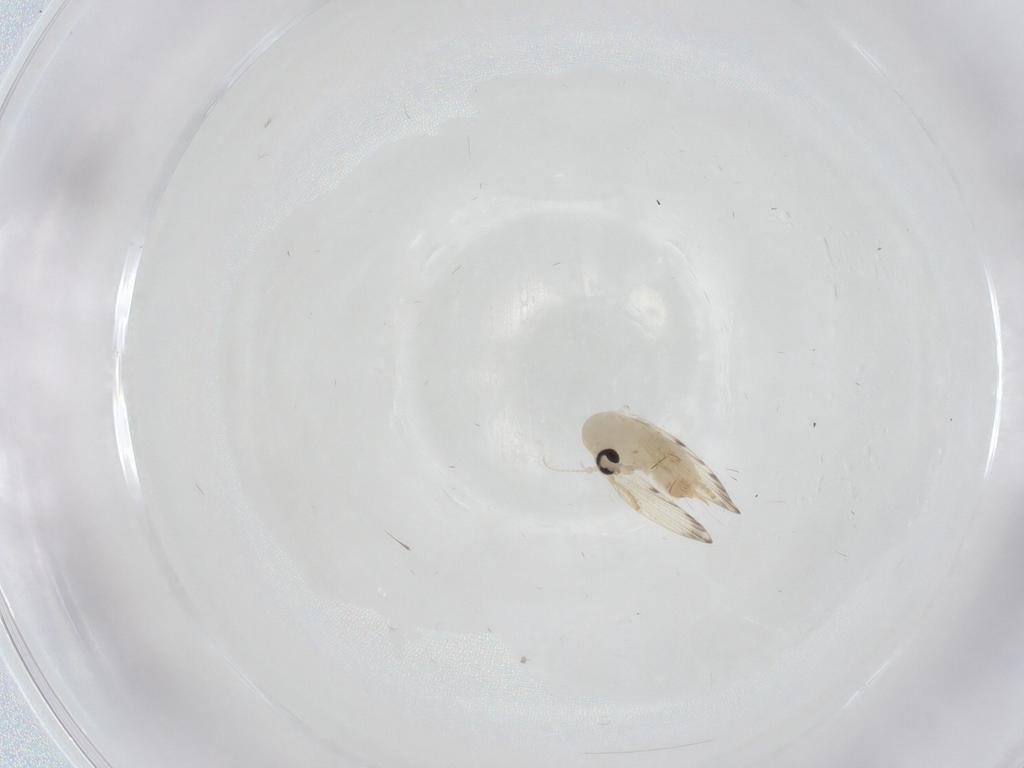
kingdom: Animalia
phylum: Arthropoda
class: Insecta
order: Diptera
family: Psychodidae
